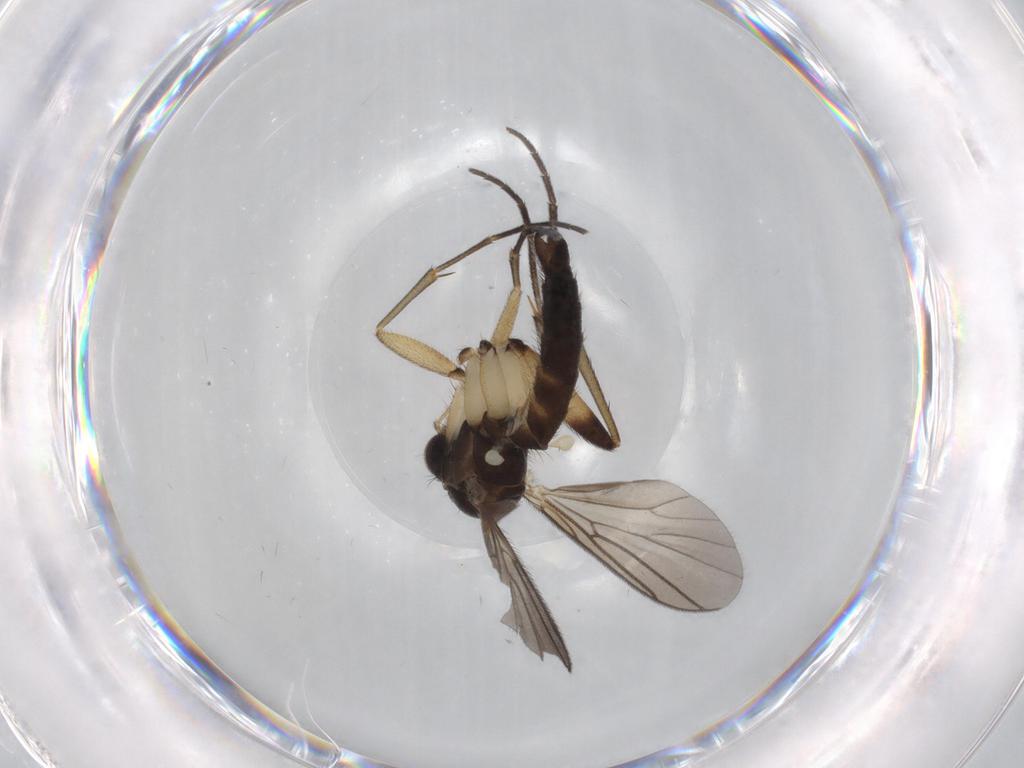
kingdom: Animalia
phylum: Arthropoda
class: Insecta
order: Diptera
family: Mycetophilidae
